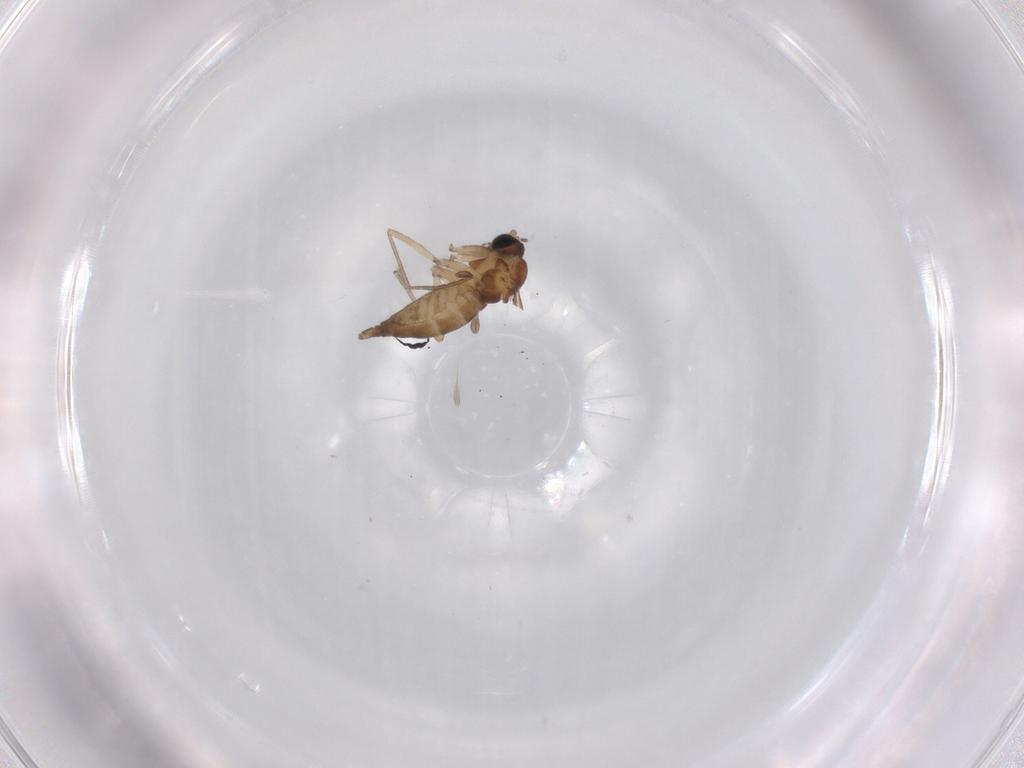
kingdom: Animalia
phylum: Arthropoda
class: Insecta
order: Diptera
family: Sciaridae
